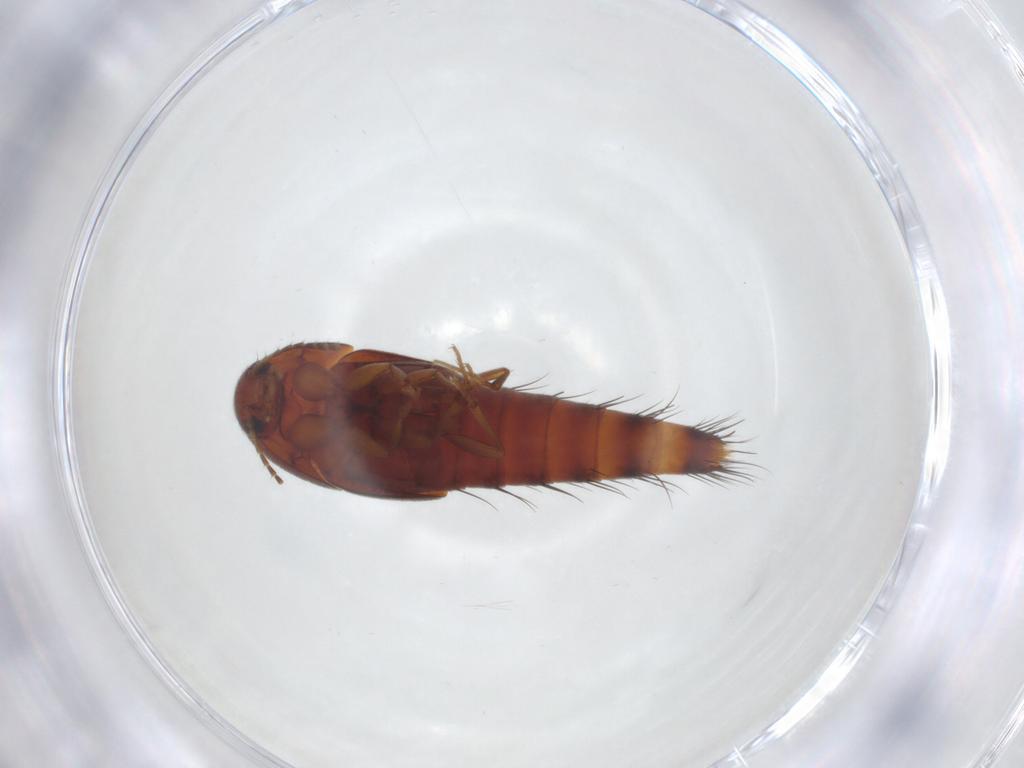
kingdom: Animalia
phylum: Arthropoda
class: Insecta
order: Coleoptera
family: Staphylinidae
